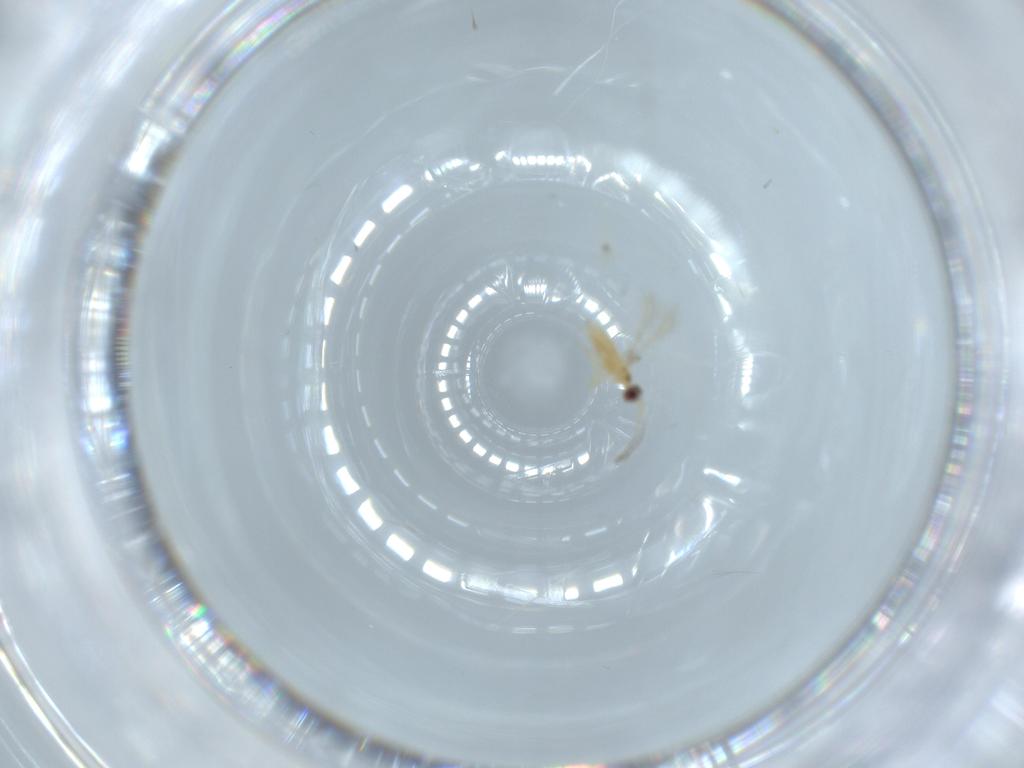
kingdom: Animalia
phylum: Arthropoda
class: Insecta
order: Hymenoptera
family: Mymaridae
